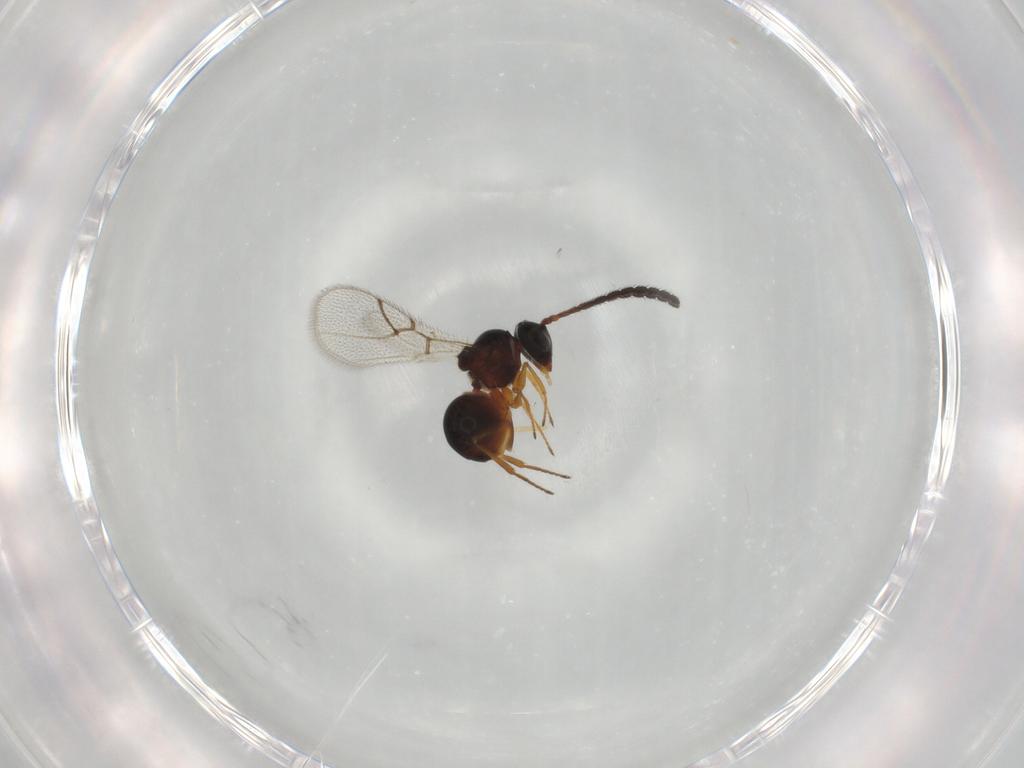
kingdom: Animalia
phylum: Arthropoda
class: Insecta
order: Hymenoptera
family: Figitidae
